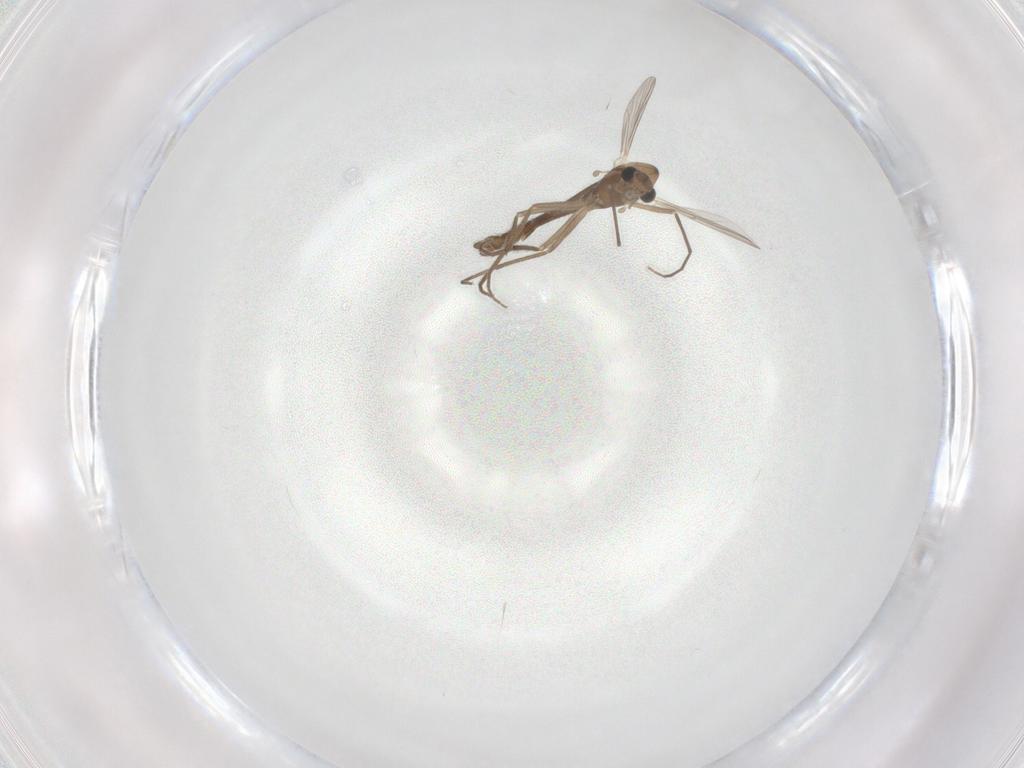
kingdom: Animalia
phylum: Arthropoda
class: Insecta
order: Diptera
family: Chironomidae
